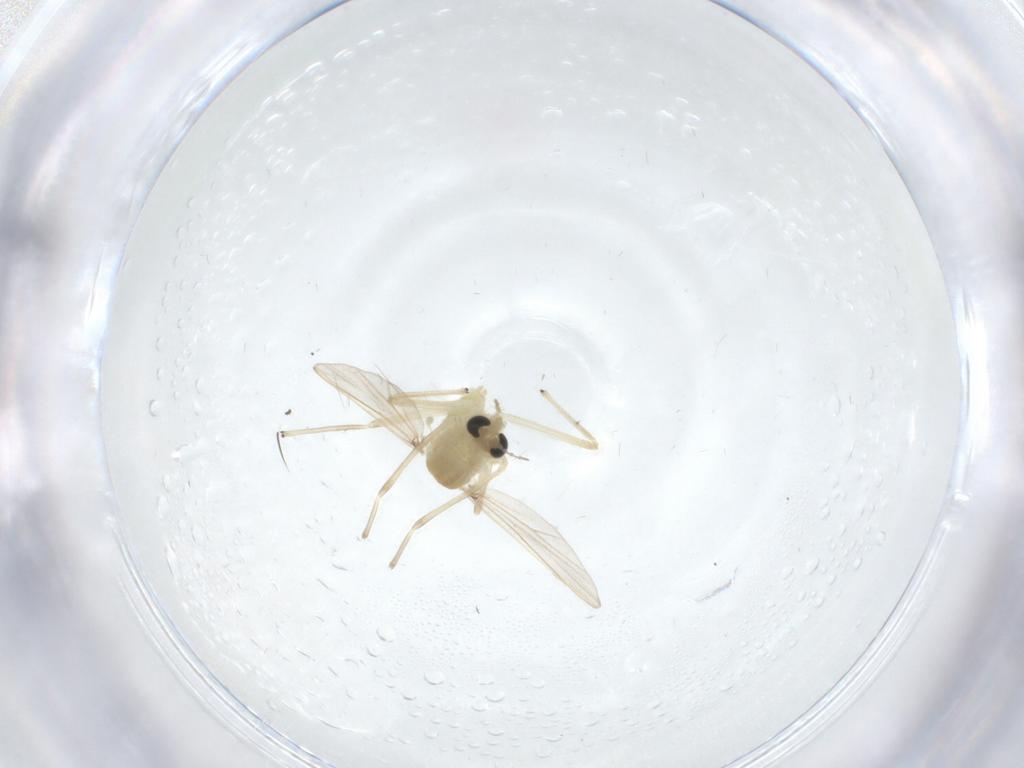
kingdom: Animalia
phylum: Arthropoda
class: Insecta
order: Diptera
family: Chironomidae
